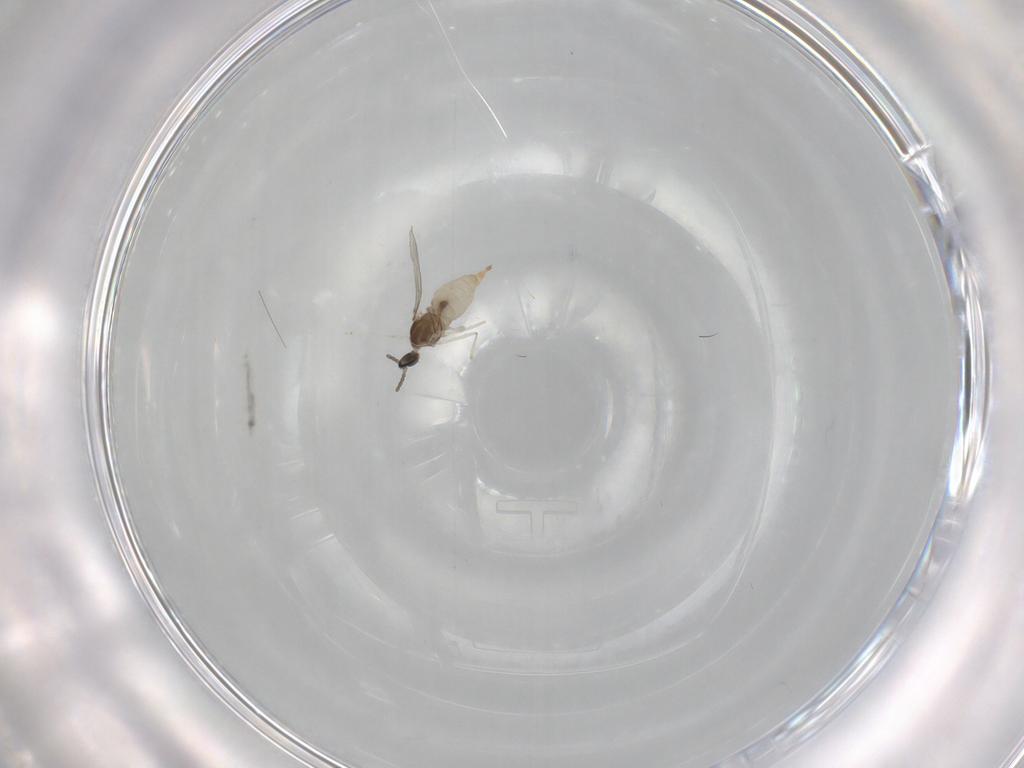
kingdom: Animalia
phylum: Arthropoda
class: Insecta
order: Diptera
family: Cecidomyiidae
